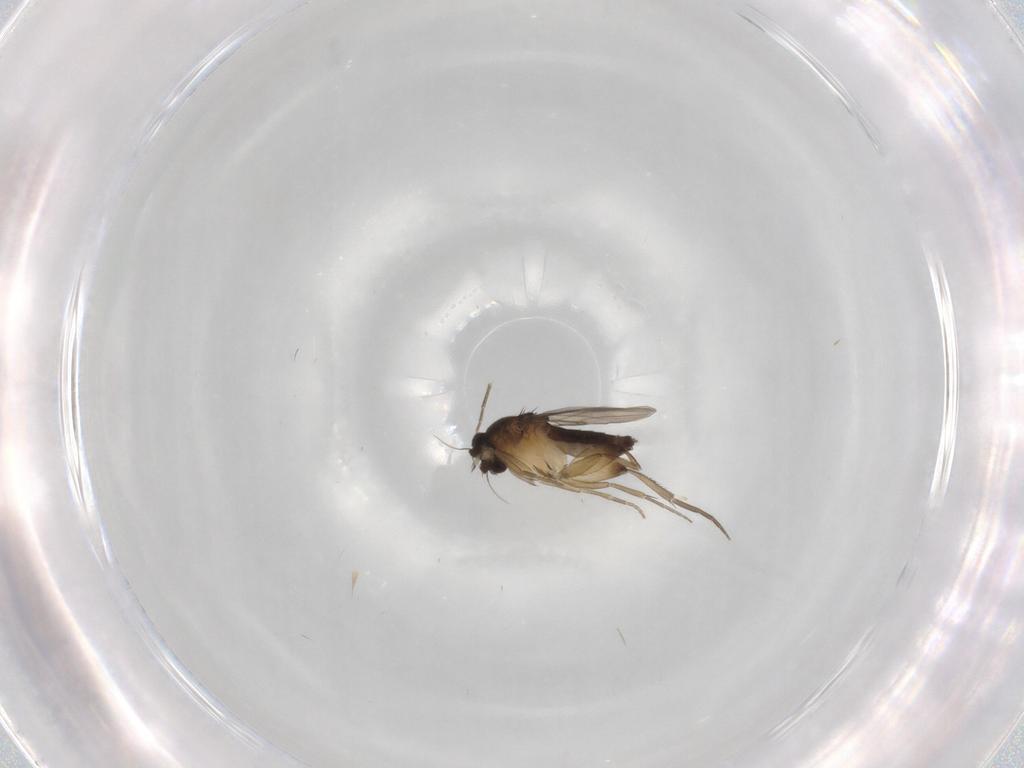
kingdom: Animalia
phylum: Arthropoda
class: Insecta
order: Diptera
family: Phoridae
